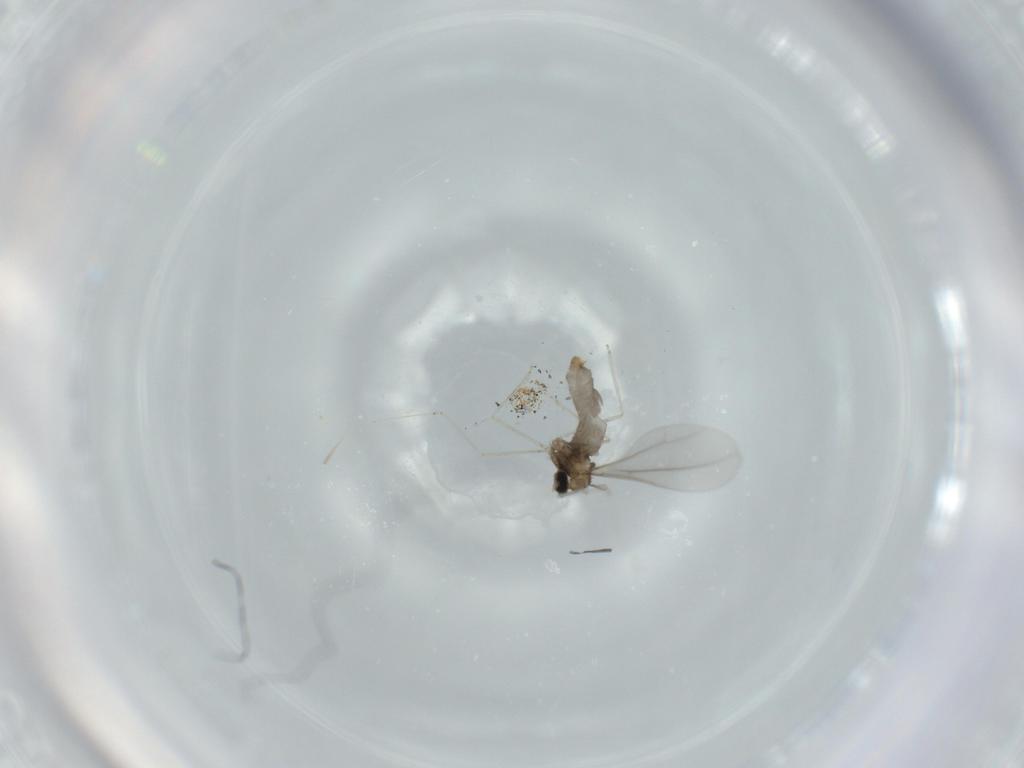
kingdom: Animalia
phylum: Arthropoda
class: Insecta
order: Diptera
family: Cecidomyiidae
